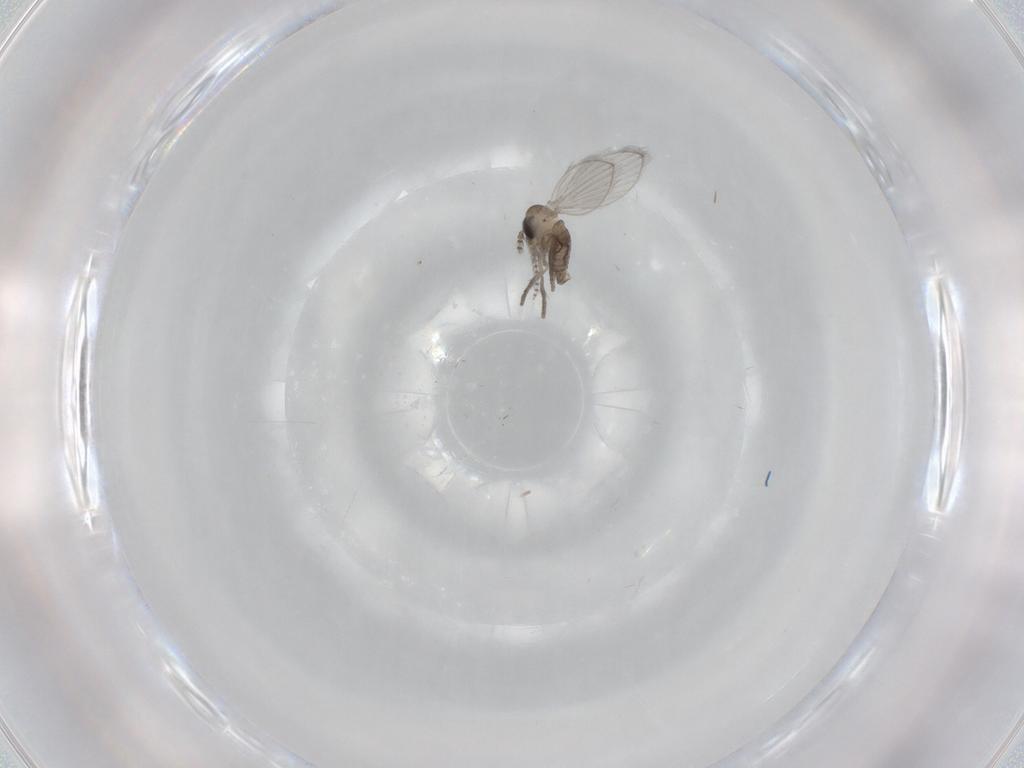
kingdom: Animalia
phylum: Arthropoda
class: Insecta
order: Diptera
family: Psychodidae
